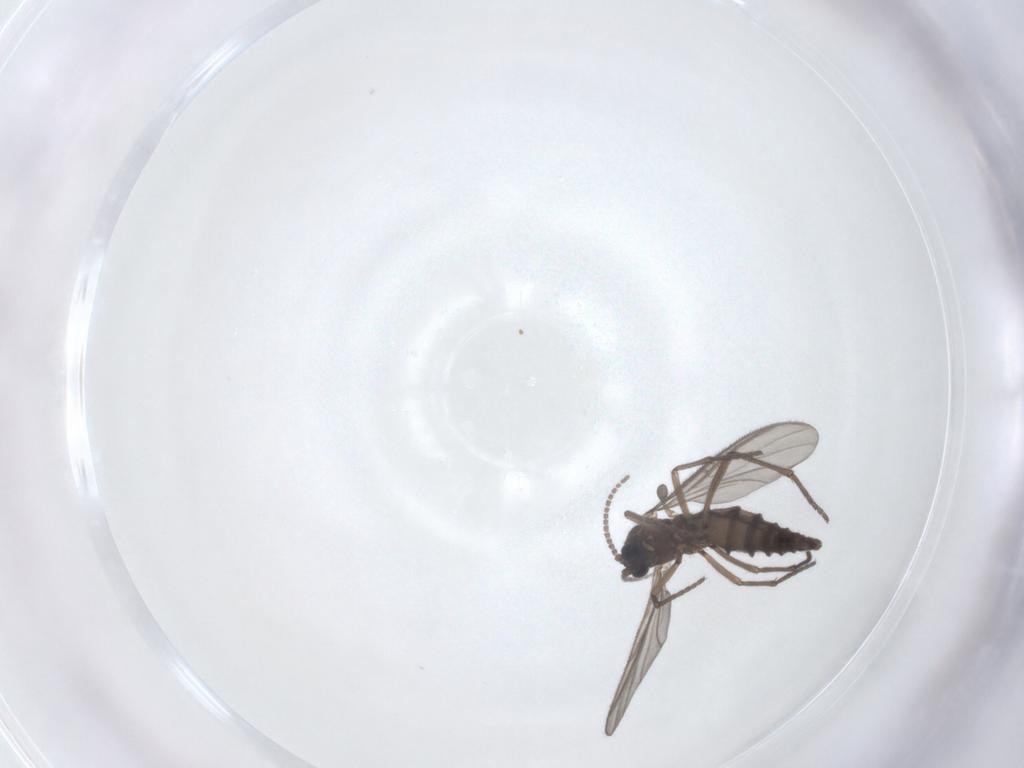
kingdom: Animalia
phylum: Arthropoda
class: Insecta
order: Diptera
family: Sciaridae
